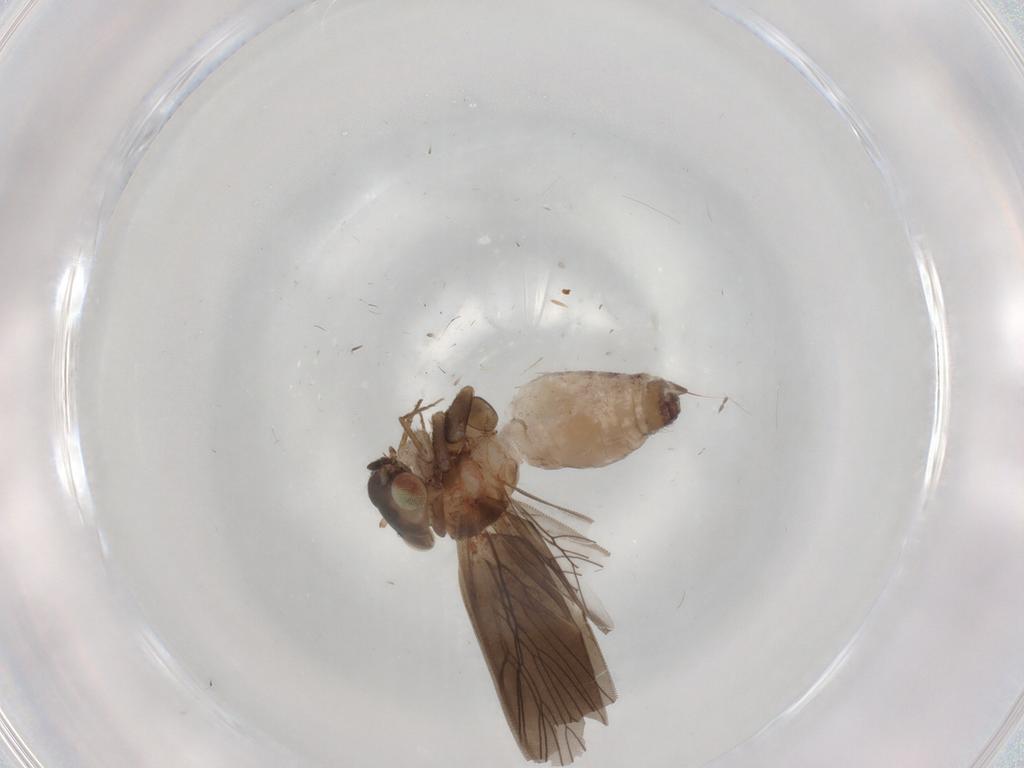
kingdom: Animalia
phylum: Arthropoda
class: Insecta
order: Psocodea
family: Lepidopsocidae
